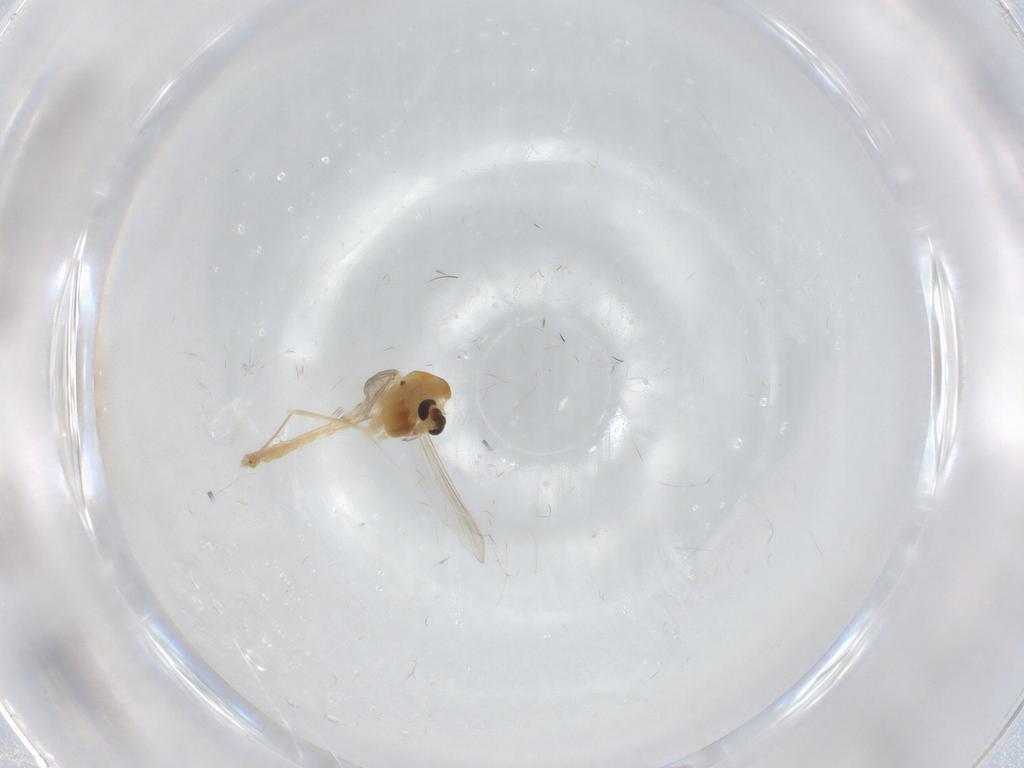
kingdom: Animalia
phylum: Arthropoda
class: Insecta
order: Diptera
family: Chironomidae
